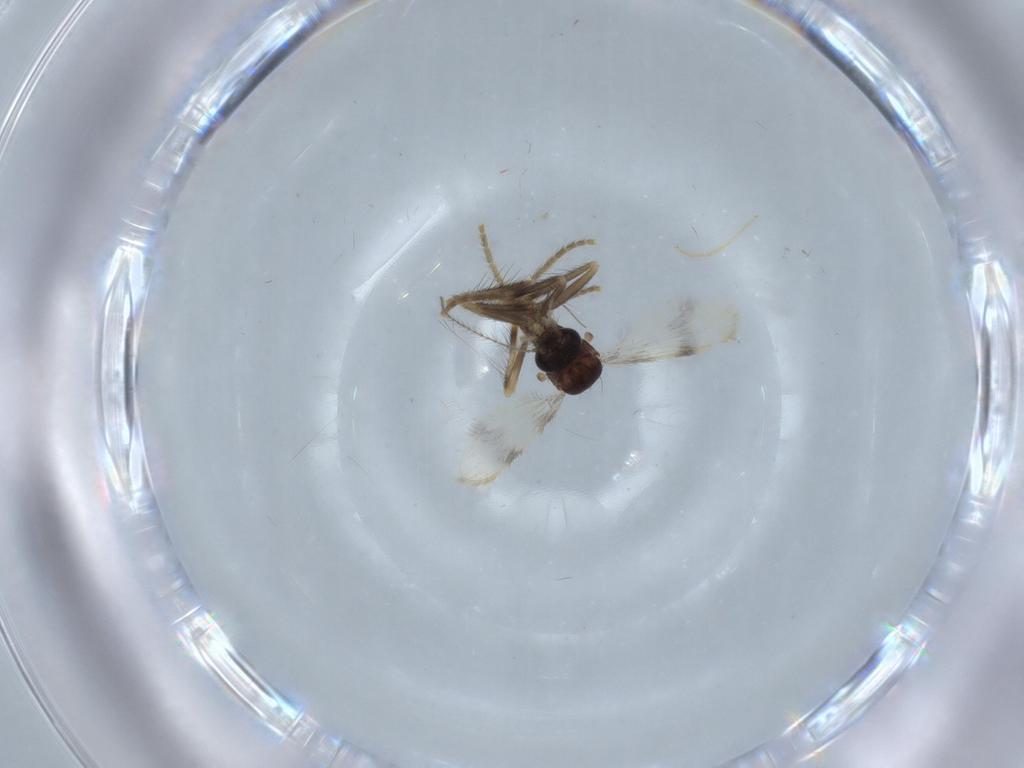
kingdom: Animalia
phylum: Arthropoda
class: Insecta
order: Diptera
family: Corethrellidae
